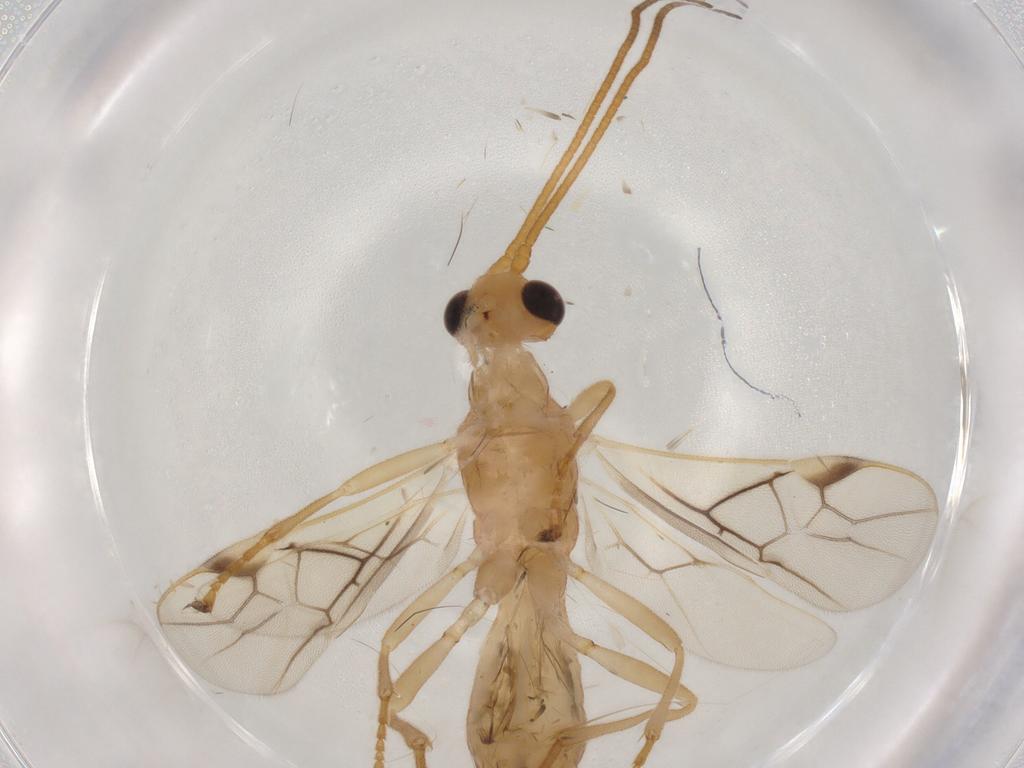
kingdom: Animalia
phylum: Arthropoda
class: Insecta
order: Hymenoptera
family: Braconidae
